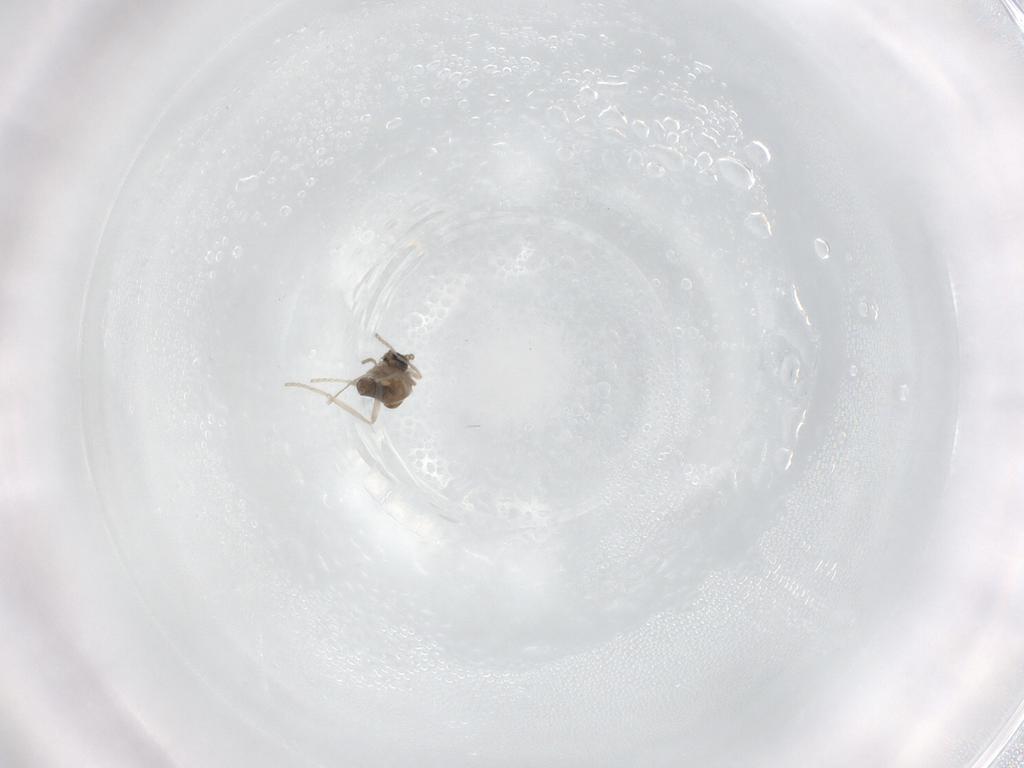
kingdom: Animalia
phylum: Arthropoda
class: Insecta
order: Diptera
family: Cecidomyiidae
